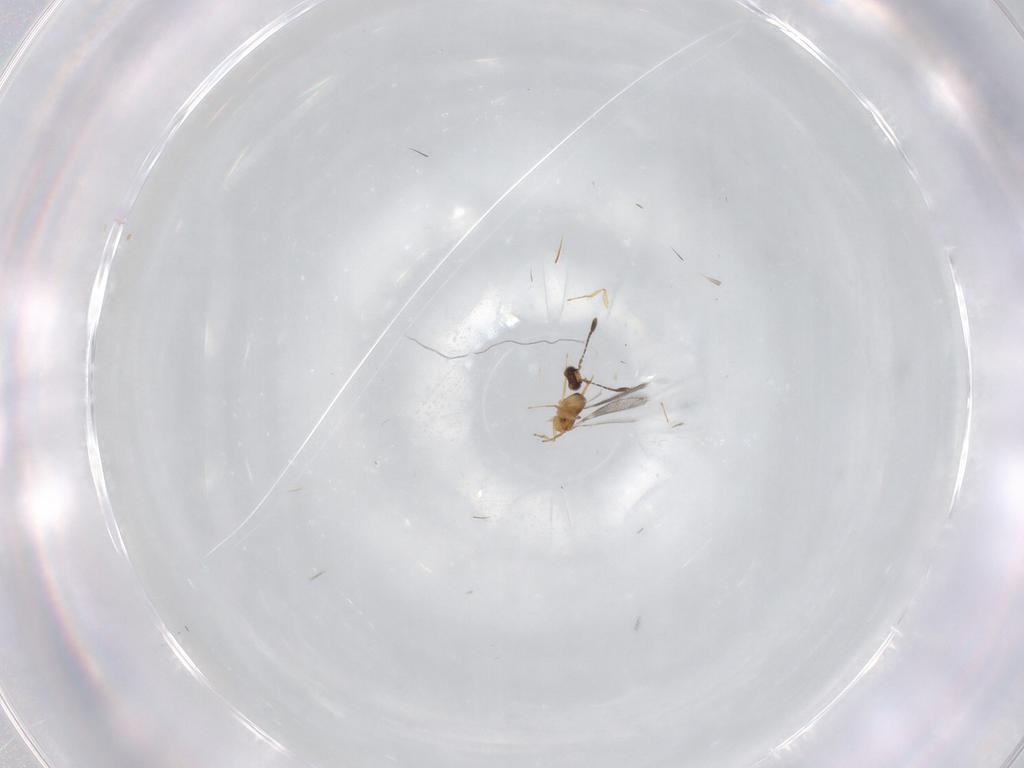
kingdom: Animalia
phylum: Arthropoda
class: Insecta
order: Hymenoptera
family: Mymaridae
